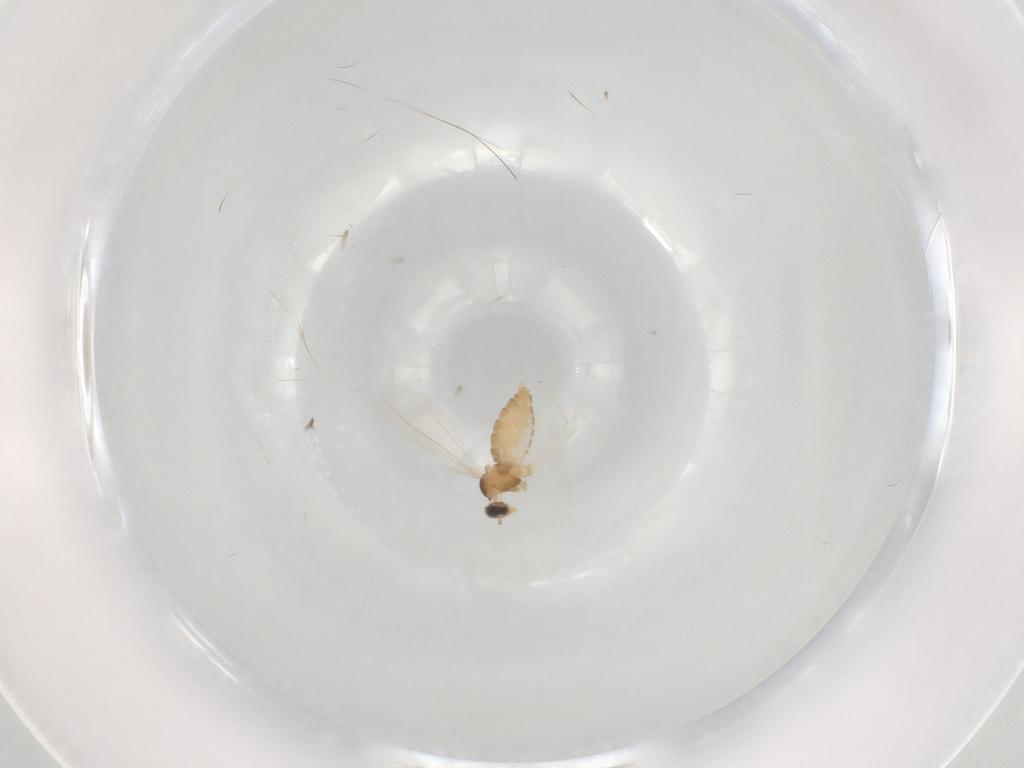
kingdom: Animalia
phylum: Arthropoda
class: Insecta
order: Diptera
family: Cecidomyiidae
